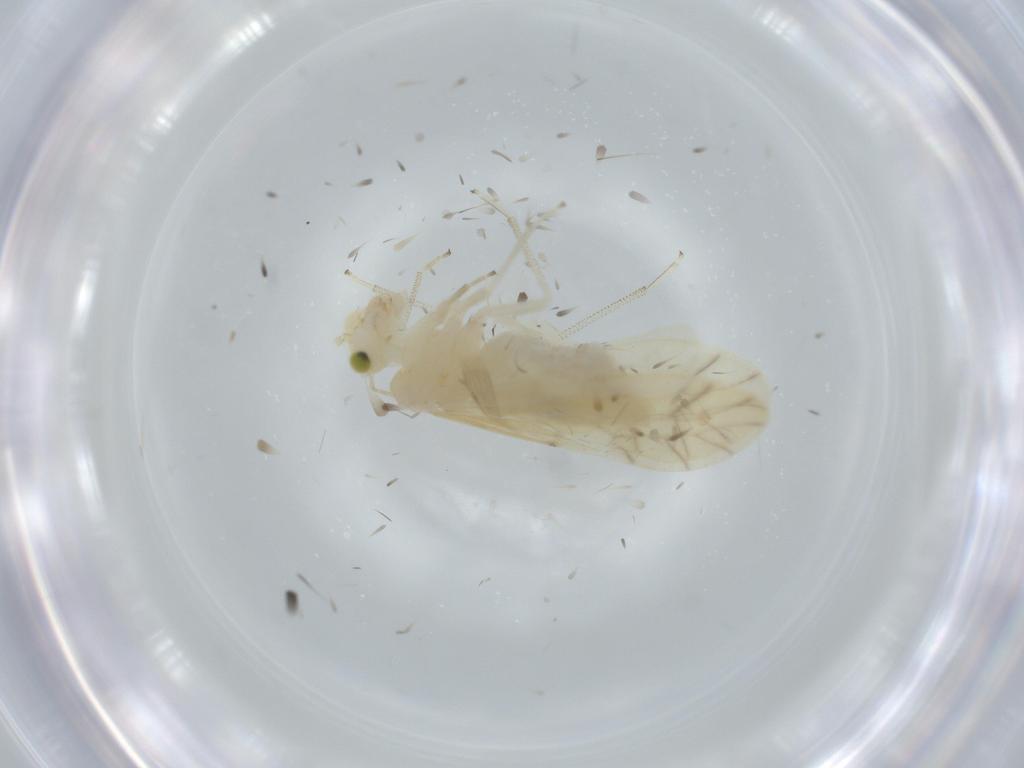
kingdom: Animalia
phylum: Arthropoda
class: Insecta
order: Psocodea
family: Caeciliusidae
